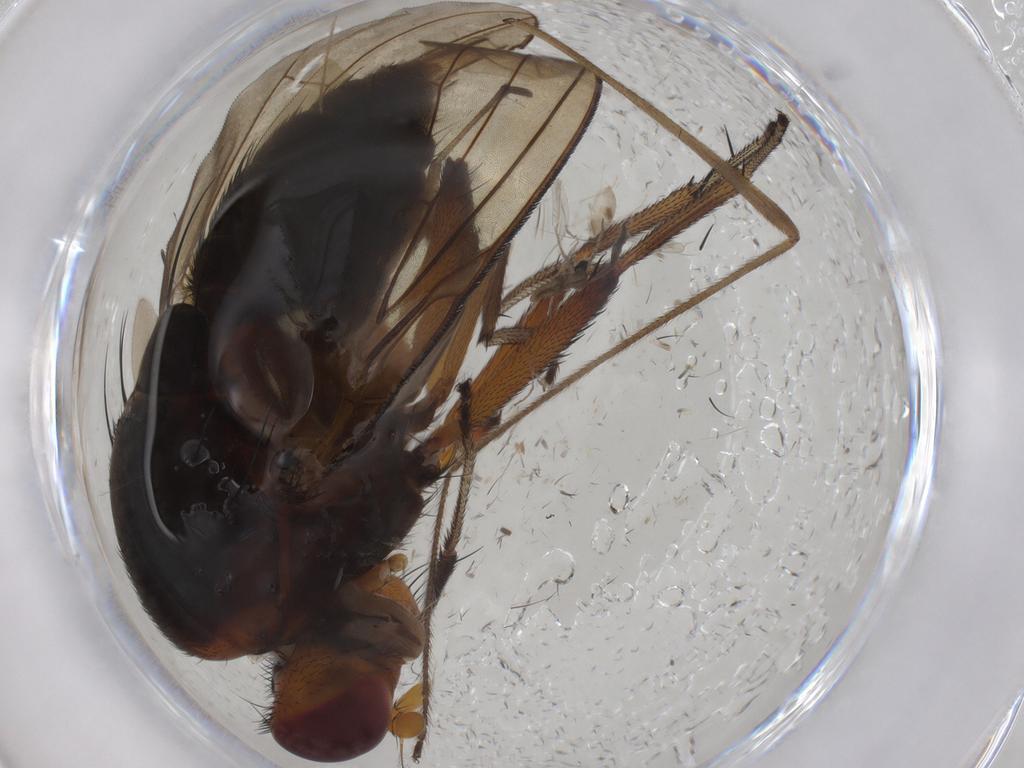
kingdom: Animalia
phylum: Arthropoda
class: Insecta
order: Diptera
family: Limoniidae
